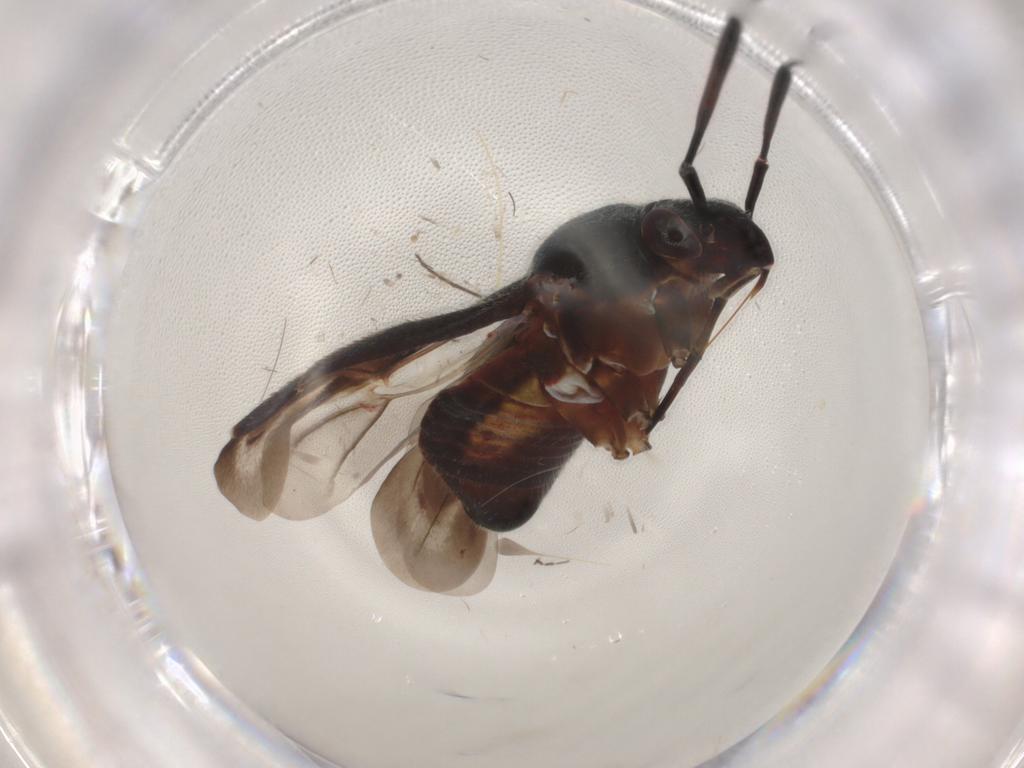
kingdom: Animalia
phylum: Arthropoda
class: Insecta
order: Hemiptera
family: Miridae
